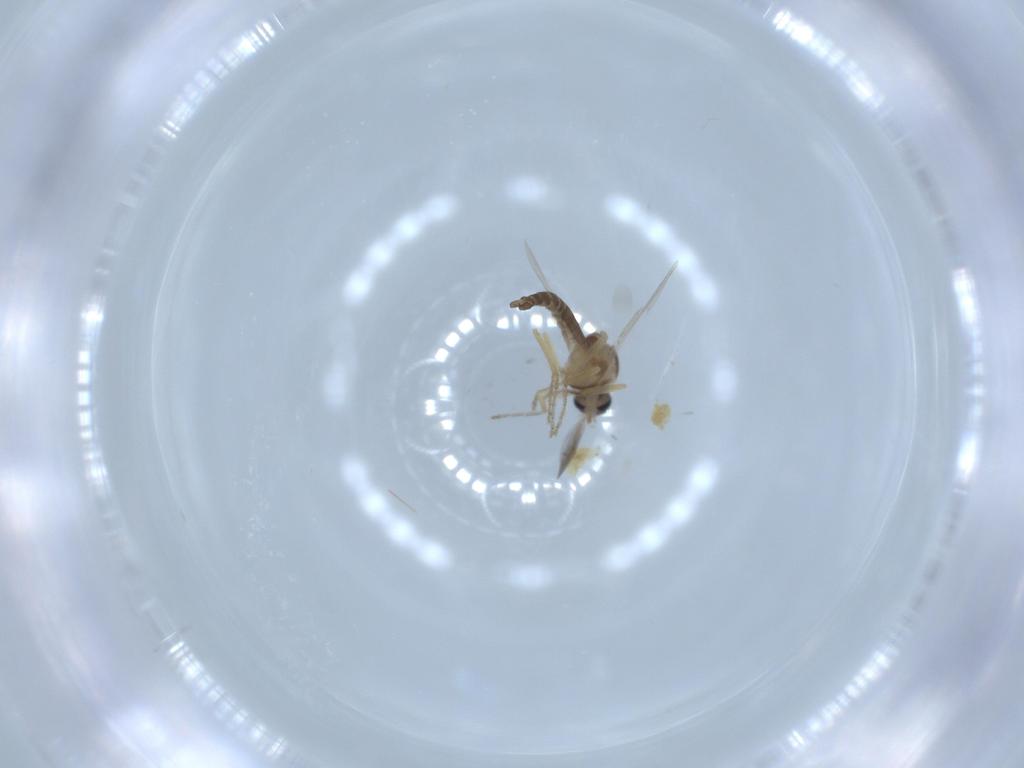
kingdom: Animalia
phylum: Arthropoda
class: Insecta
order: Diptera
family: Ceratopogonidae
